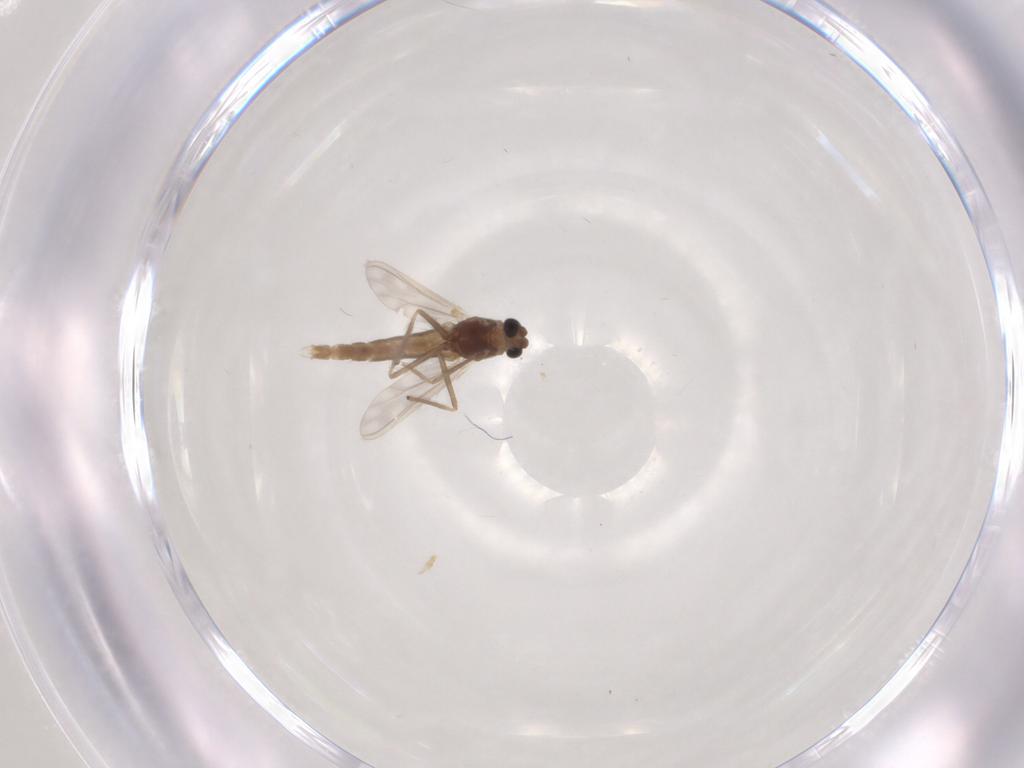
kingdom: Animalia
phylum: Arthropoda
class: Insecta
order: Diptera
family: Chironomidae
